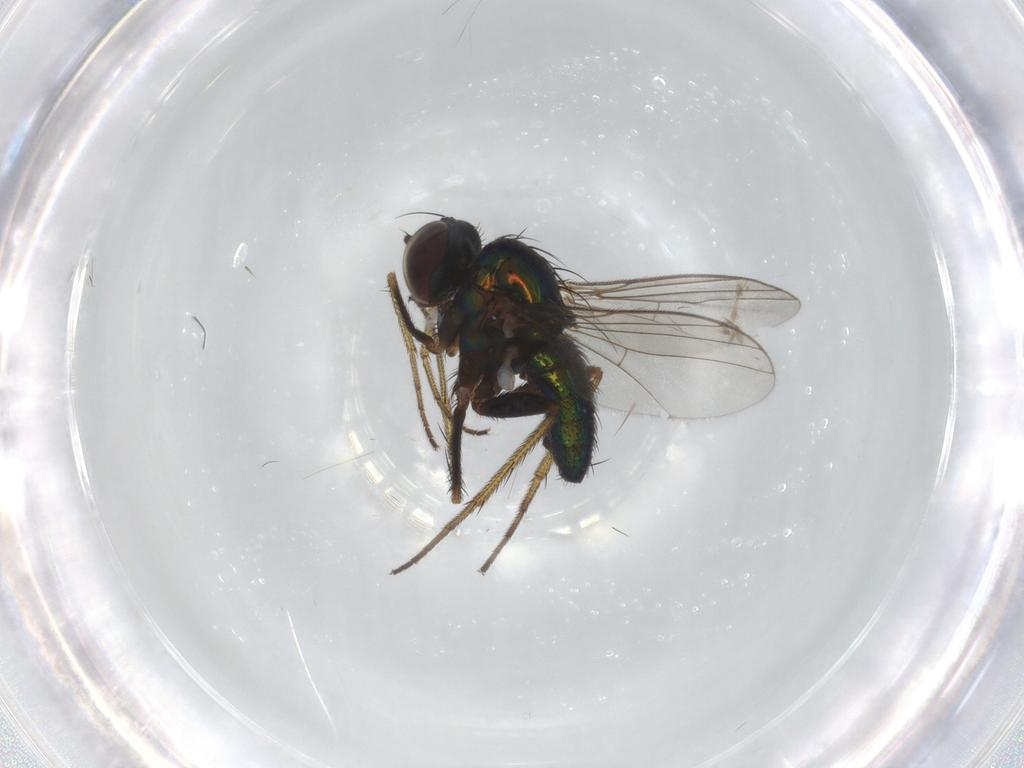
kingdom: Animalia
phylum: Arthropoda
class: Insecta
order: Diptera
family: Dolichopodidae
